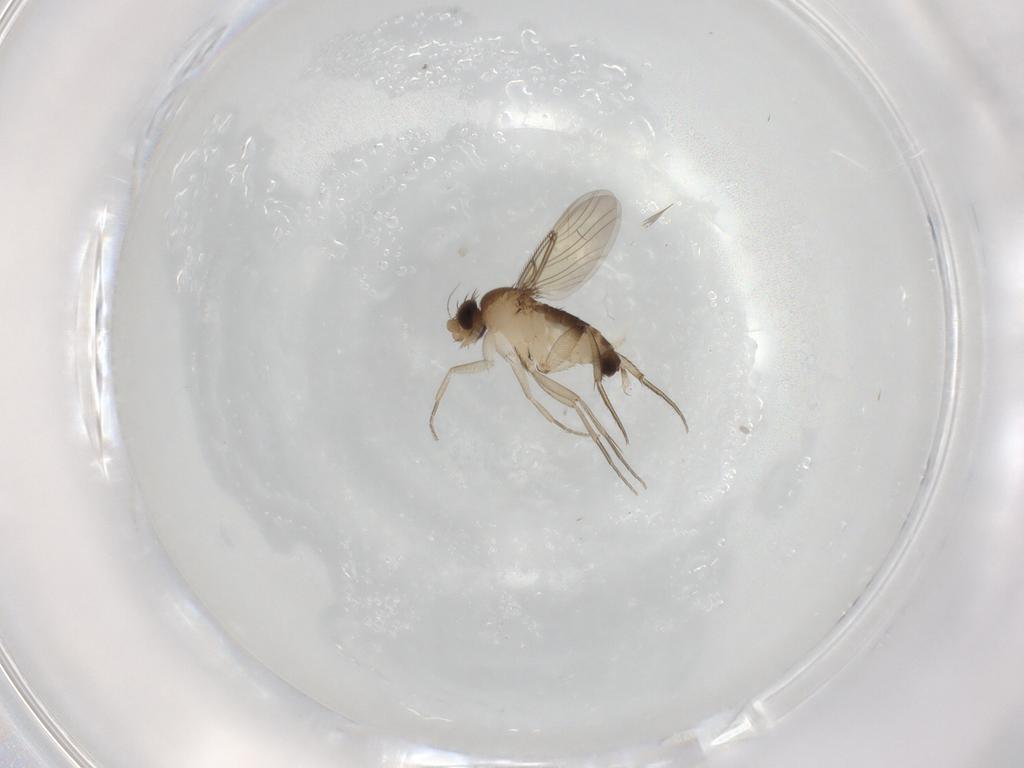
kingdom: Animalia
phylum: Arthropoda
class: Insecta
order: Diptera
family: Phoridae
